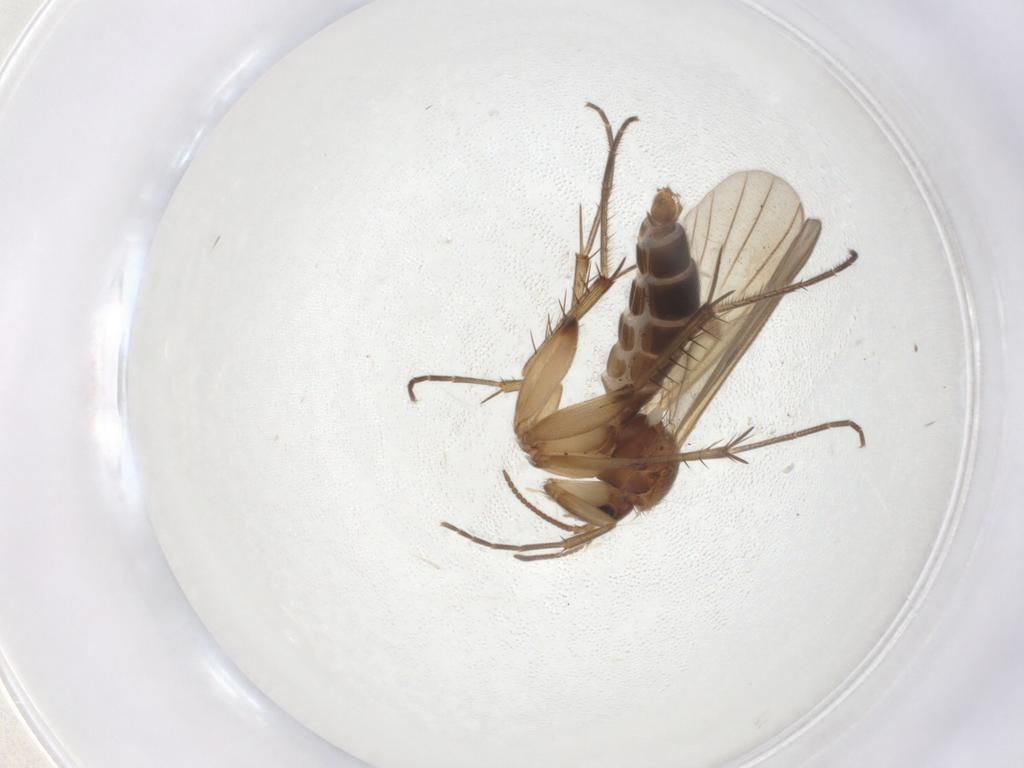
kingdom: Animalia
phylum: Arthropoda
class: Insecta
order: Diptera
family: Mycetophilidae
